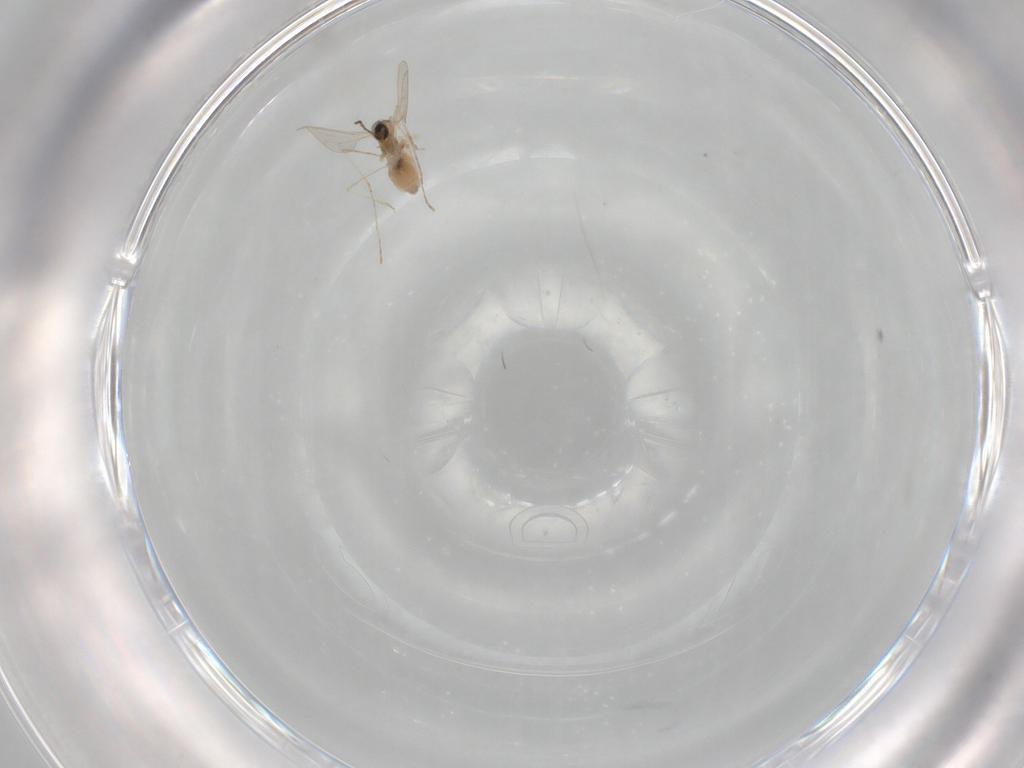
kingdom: Animalia
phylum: Arthropoda
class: Insecta
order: Diptera
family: Cecidomyiidae
